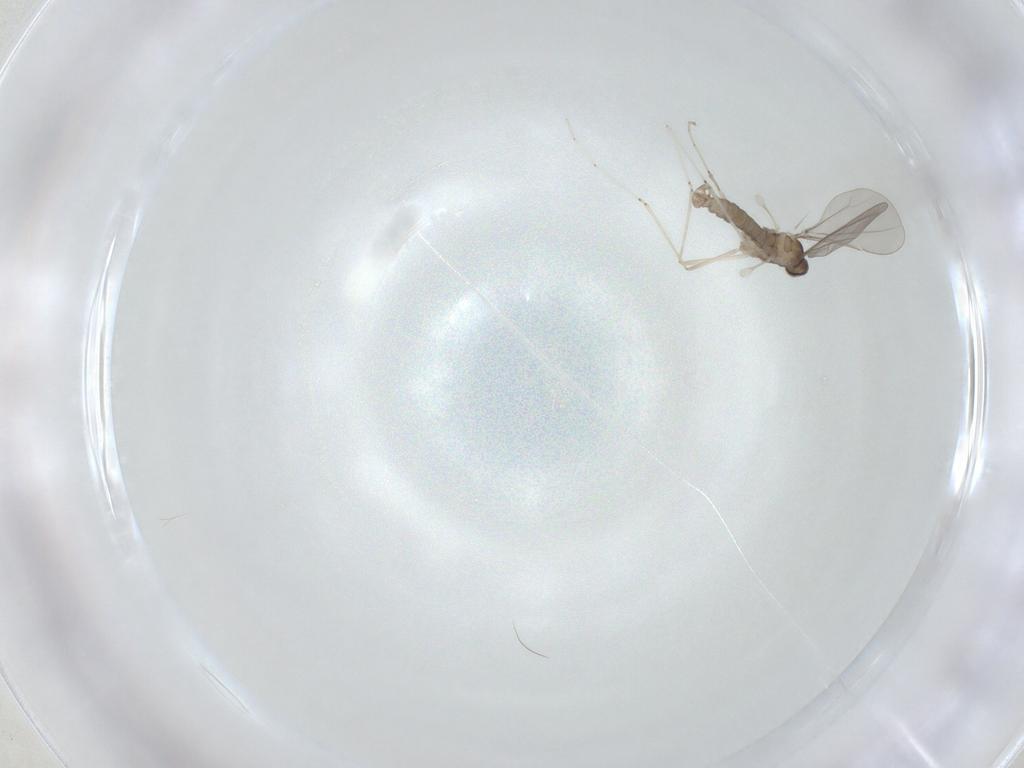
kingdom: Animalia
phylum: Arthropoda
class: Insecta
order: Diptera
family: Cecidomyiidae
